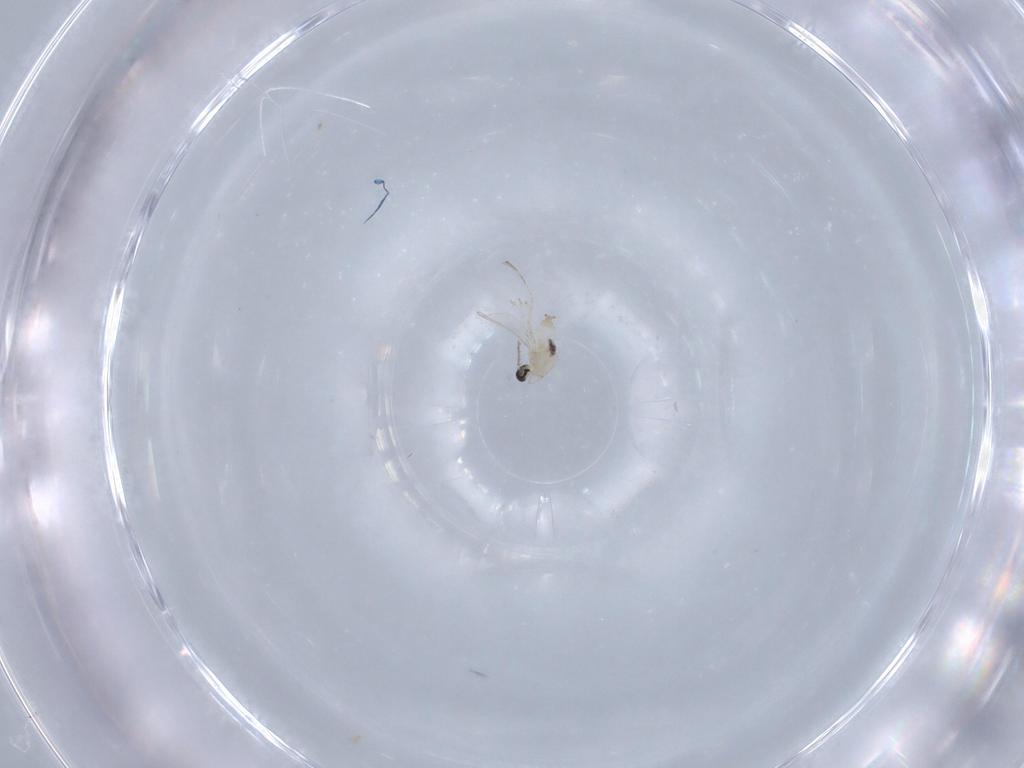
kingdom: Animalia
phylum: Arthropoda
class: Insecta
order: Diptera
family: Cecidomyiidae
